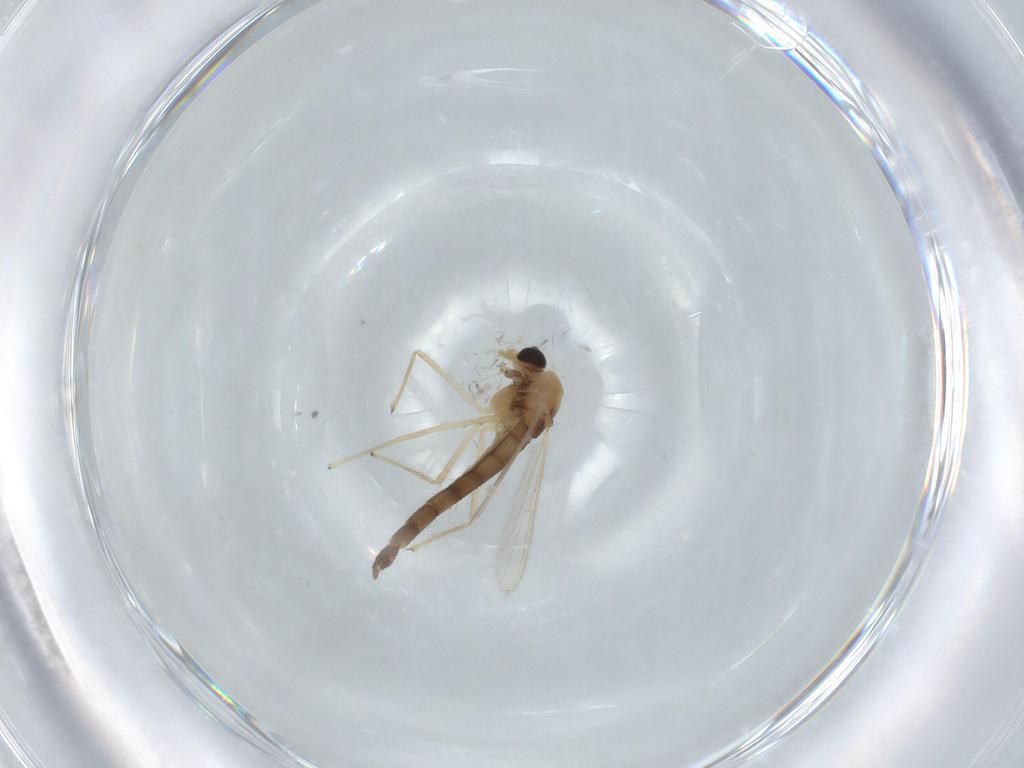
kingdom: Animalia
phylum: Arthropoda
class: Insecta
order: Diptera
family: Chironomidae
